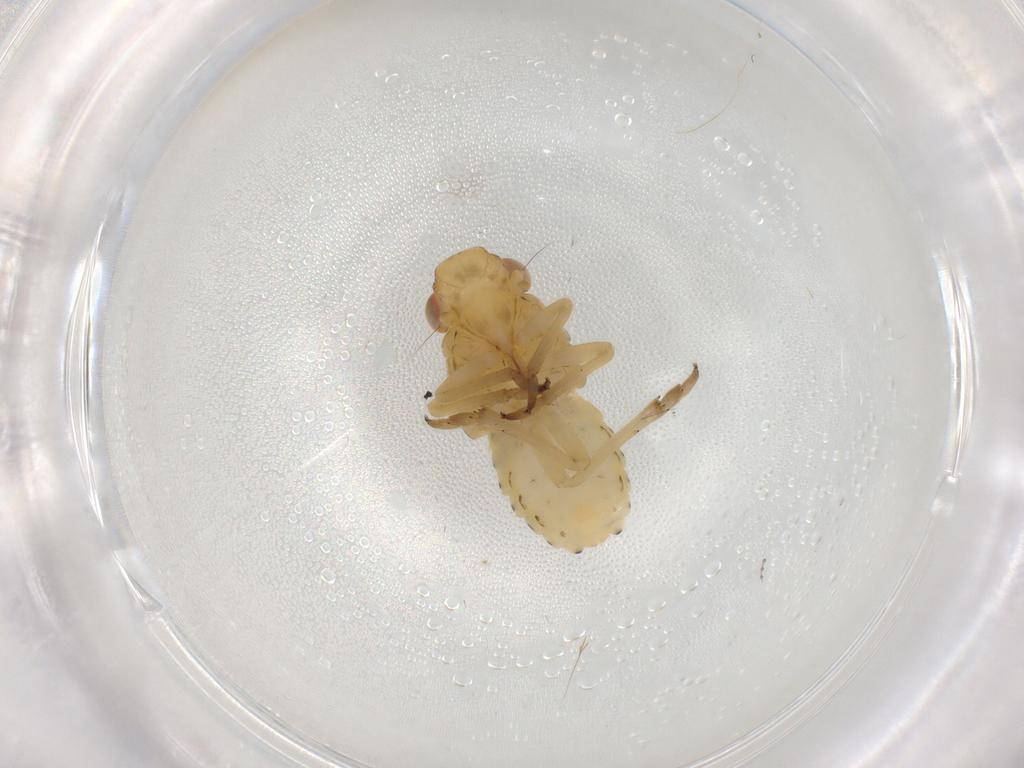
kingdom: Animalia
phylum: Arthropoda
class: Insecta
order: Hemiptera
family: Caliscelidae
